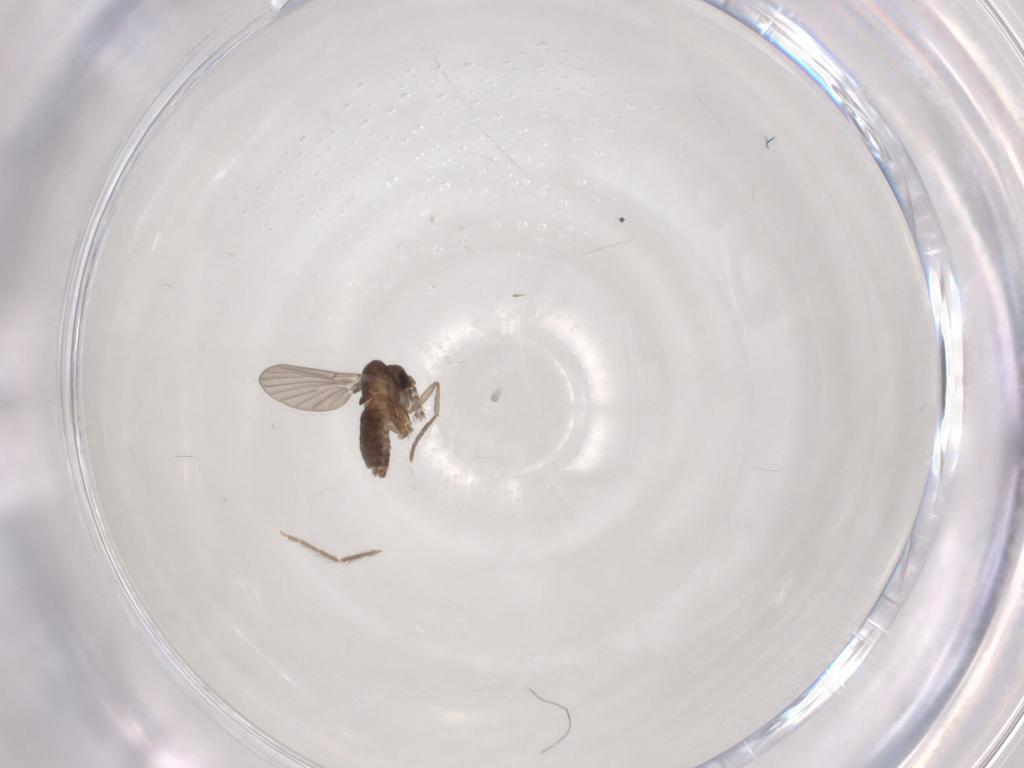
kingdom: Animalia
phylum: Arthropoda
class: Insecta
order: Diptera
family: Chironomidae
